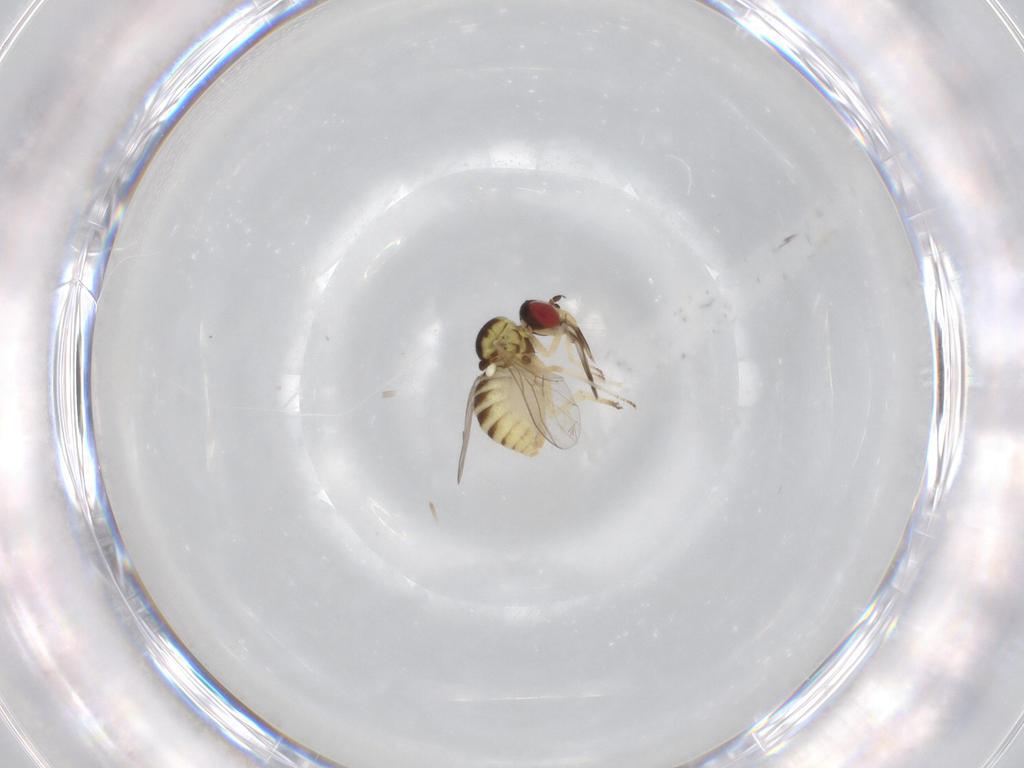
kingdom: Animalia
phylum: Arthropoda
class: Insecta
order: Diptera
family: Bombyliidae
